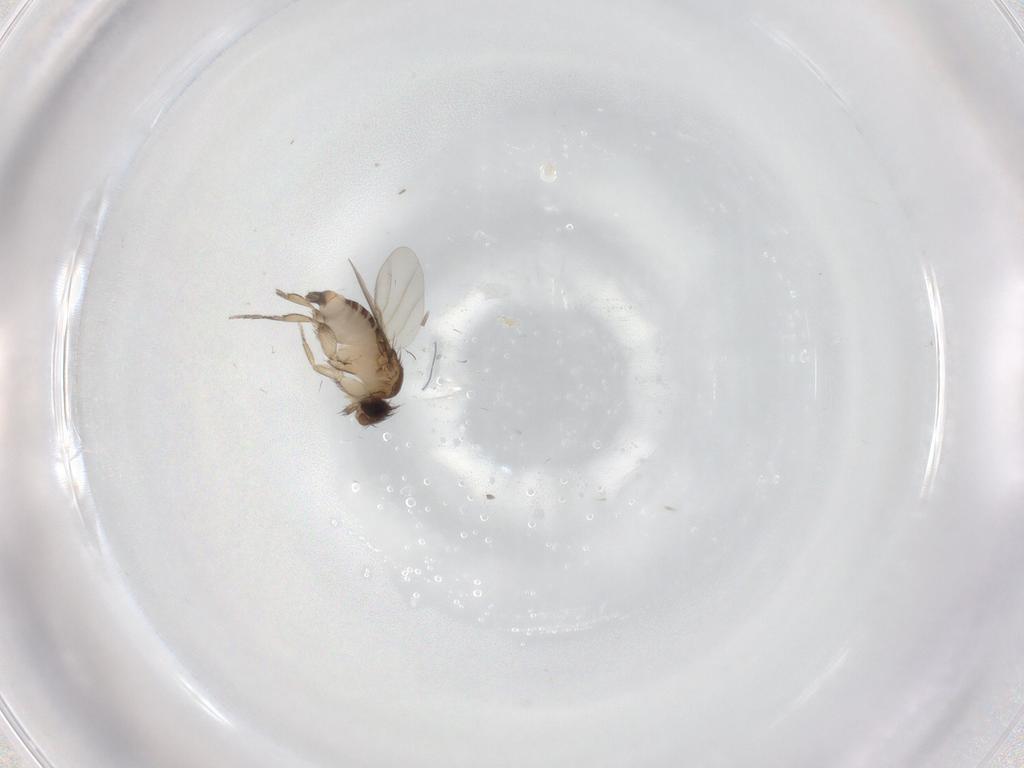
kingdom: Animalia
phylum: Arthropoda
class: Insecta
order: Diptera
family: Phoridae
